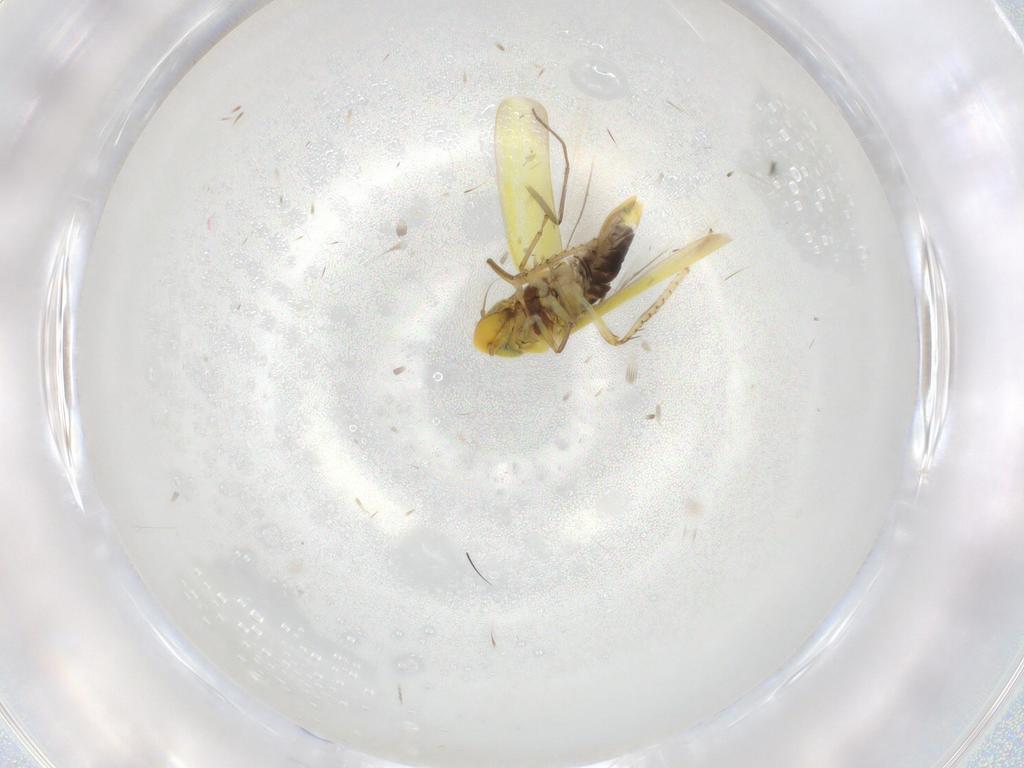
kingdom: Animalia
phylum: Arthropoda
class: Insecta
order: Hemiptera
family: Cicadellidae
